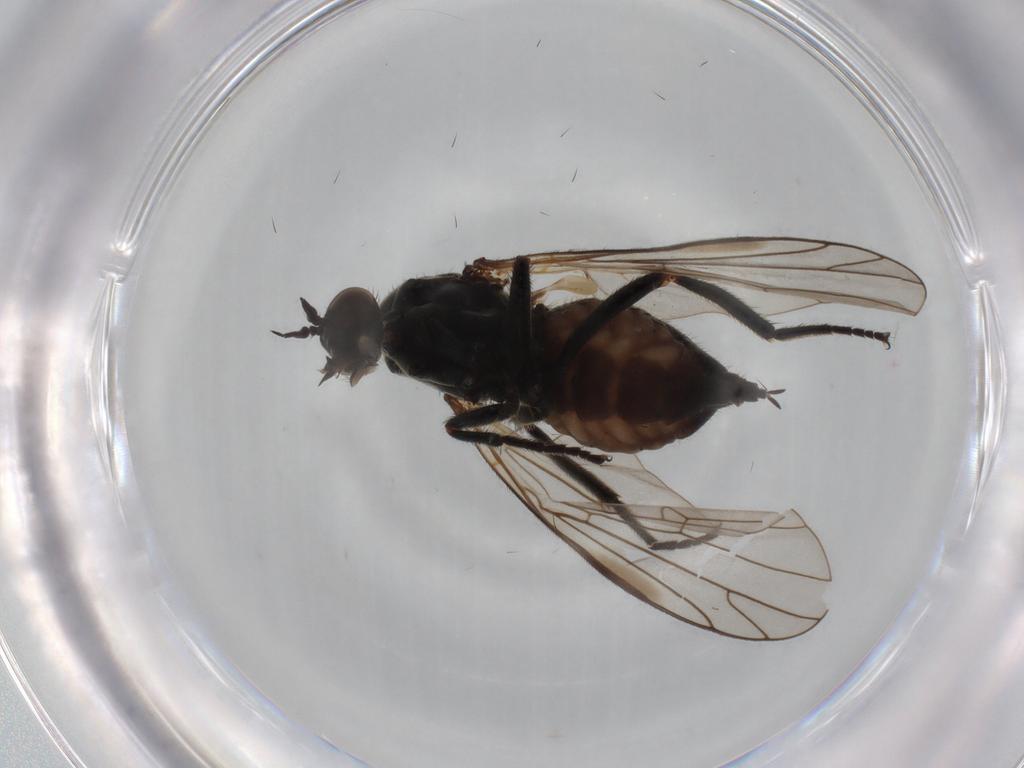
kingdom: Animalia
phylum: Arthropoda
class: Insecta
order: Diptera
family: Empididae
